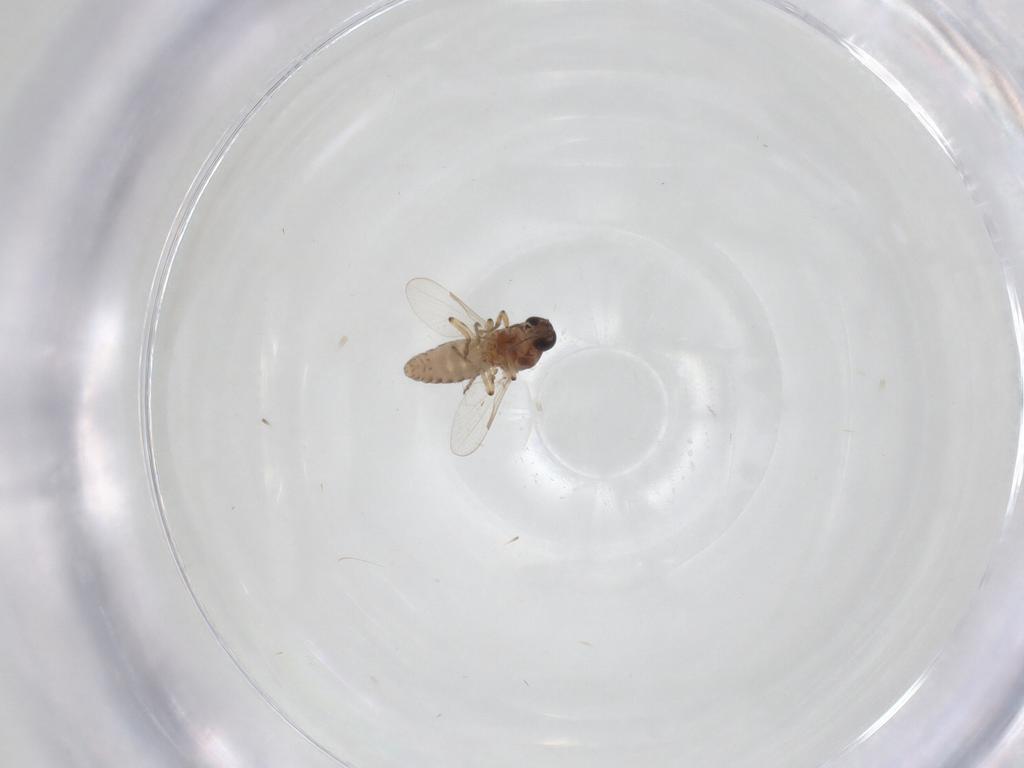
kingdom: Animalia
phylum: Arthropoda
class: Insecta
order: Diptera
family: Ceratopogonidae
